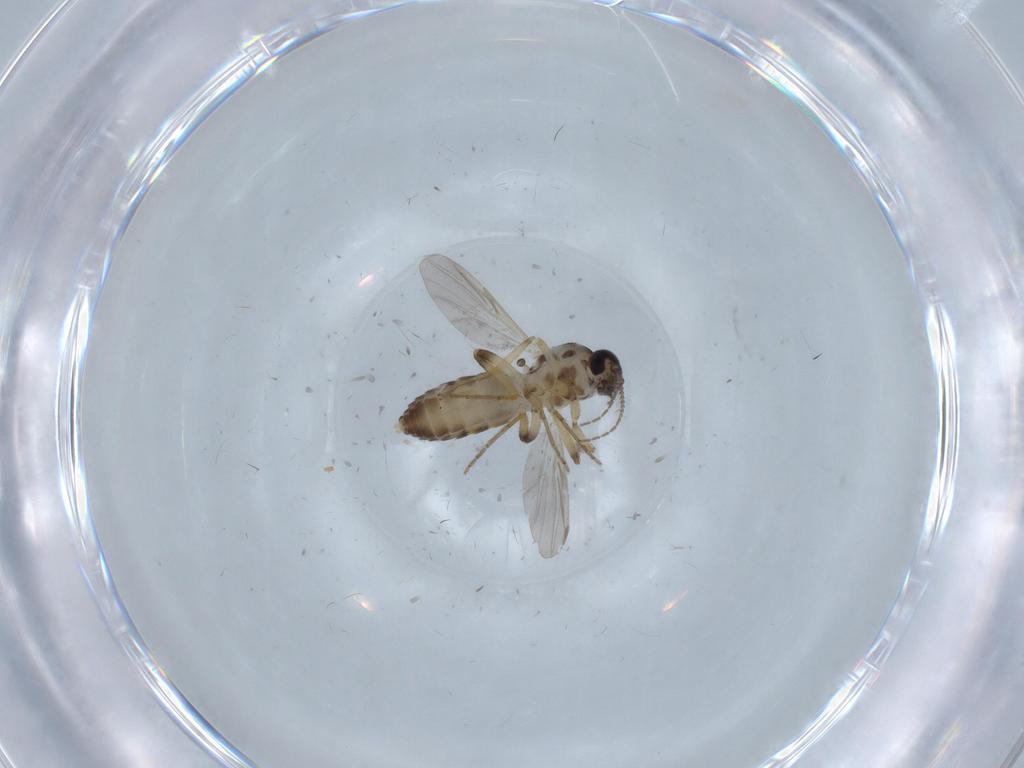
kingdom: Animalia
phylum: Arthropoda
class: Insecta
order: Diptera
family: Ceratopogonidae
